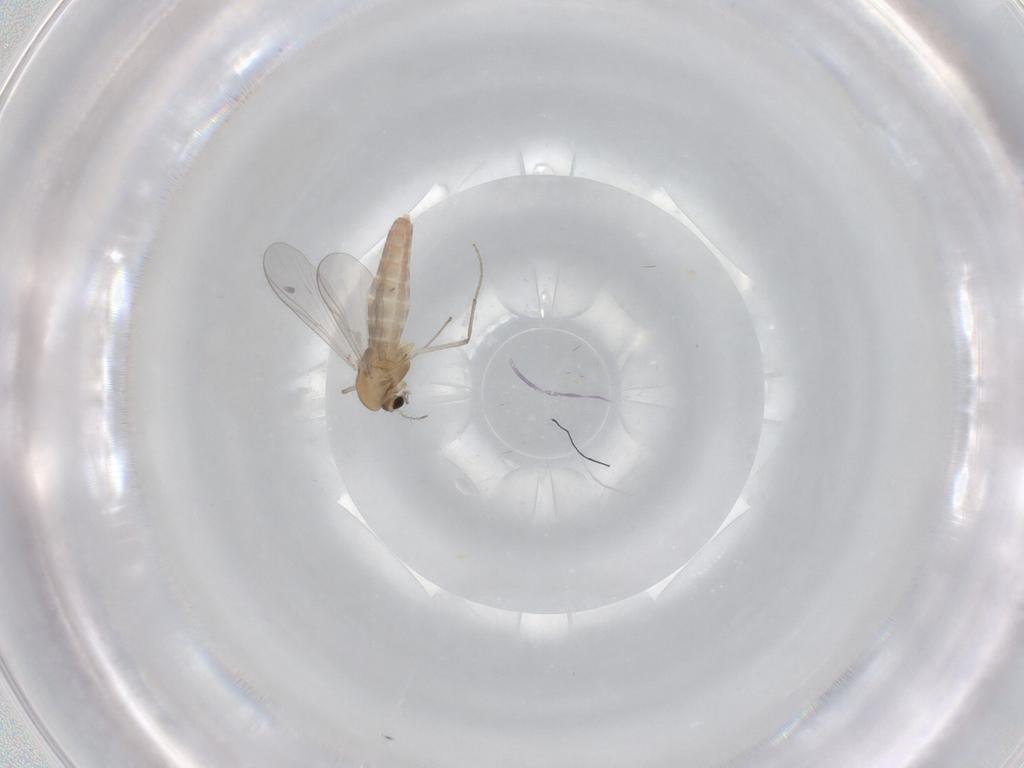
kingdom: Animalia
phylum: Arthropoda
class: Insecta
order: Diptera
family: Chironomidae
